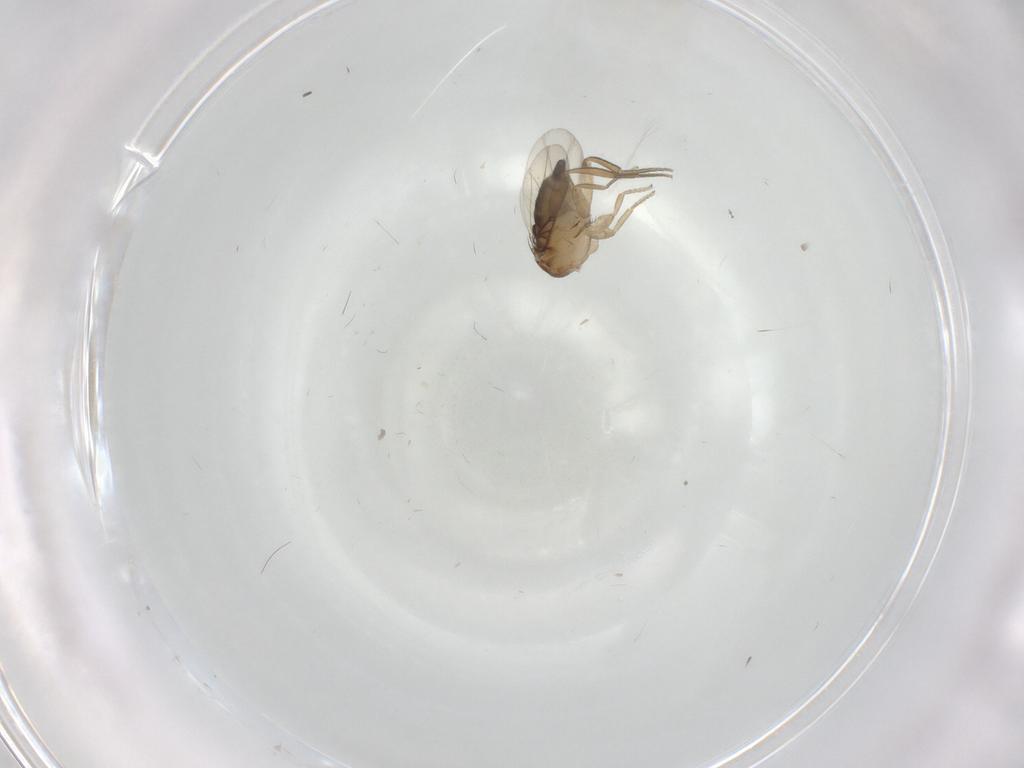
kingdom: Animalia
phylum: Arthropoda
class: Insecta
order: Diptera
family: Cecidomyiidae
